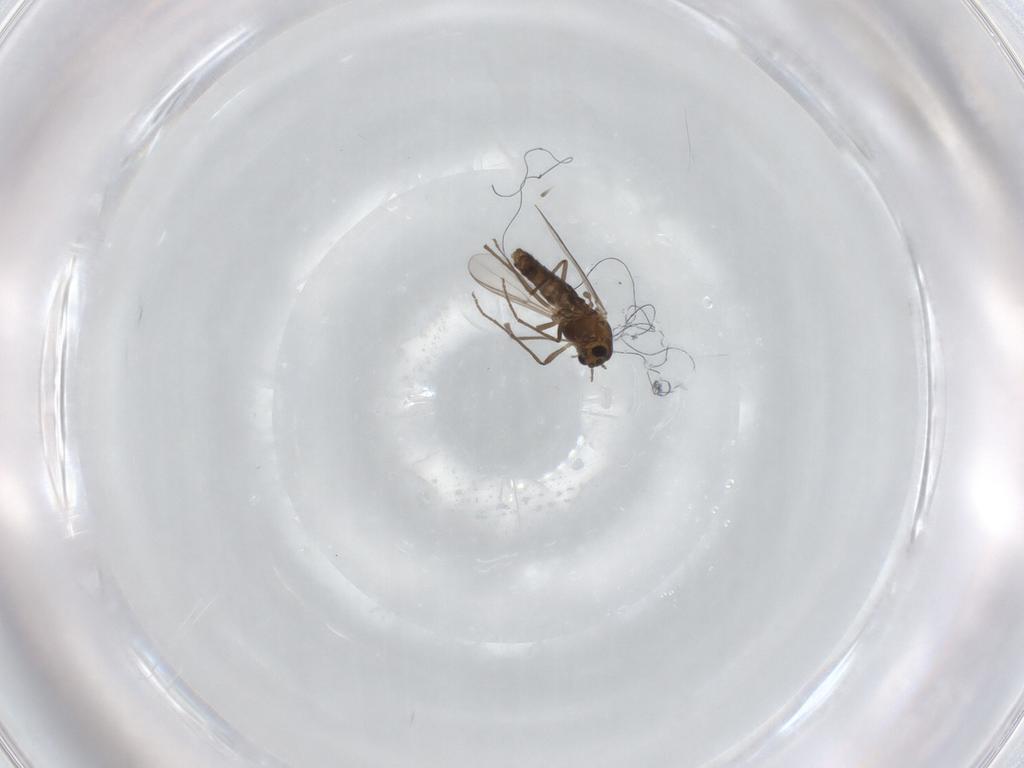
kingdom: Animalia
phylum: Arthropoda
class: Insecta
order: Diptera
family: Chironomidae
